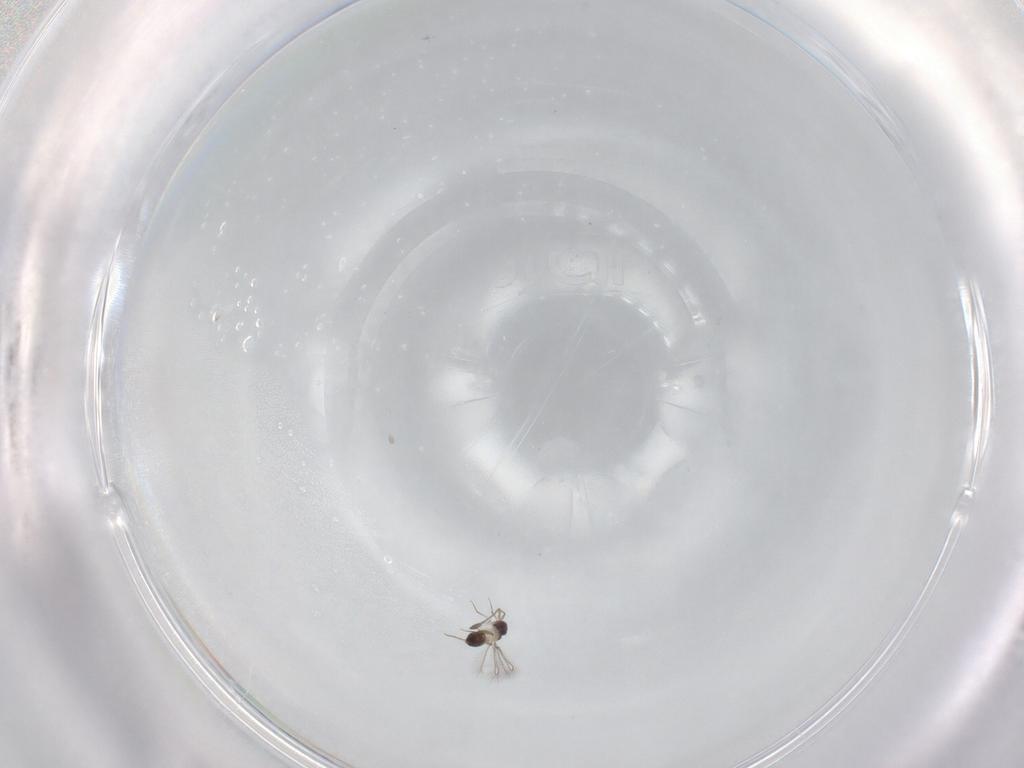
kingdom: Animalia
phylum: Arthropoda
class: Insecta
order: Hymenoptera
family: Mymaridae
